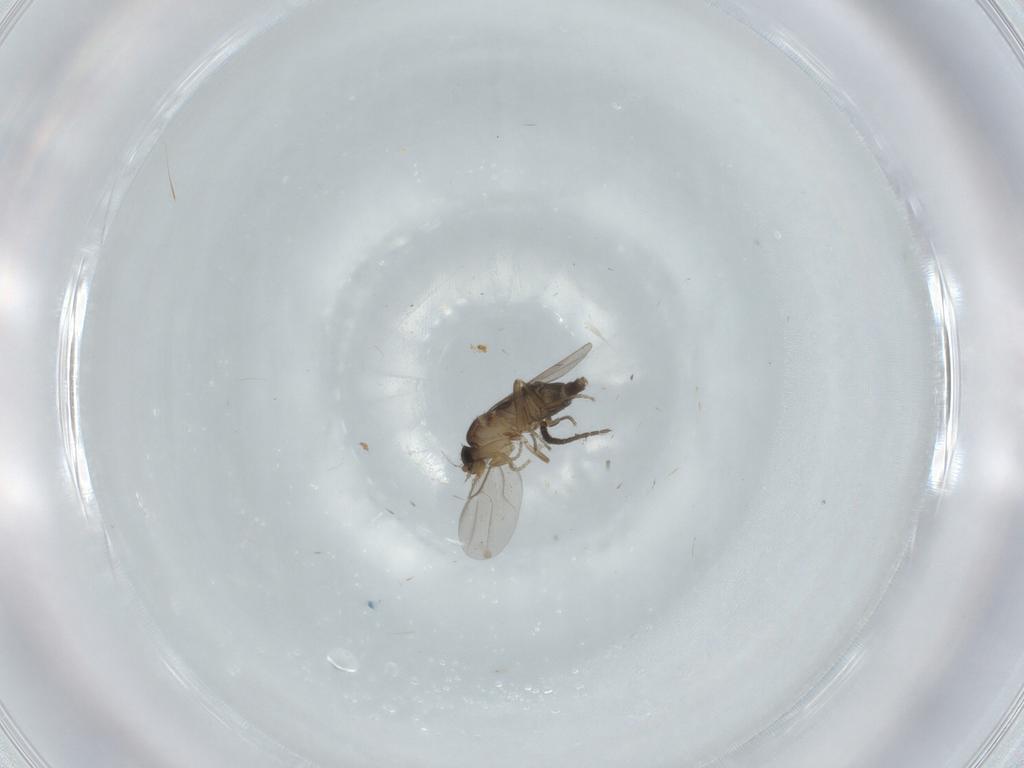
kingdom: Animalia
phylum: Arthropoda
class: Insecta
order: Diptera
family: Phoridae
